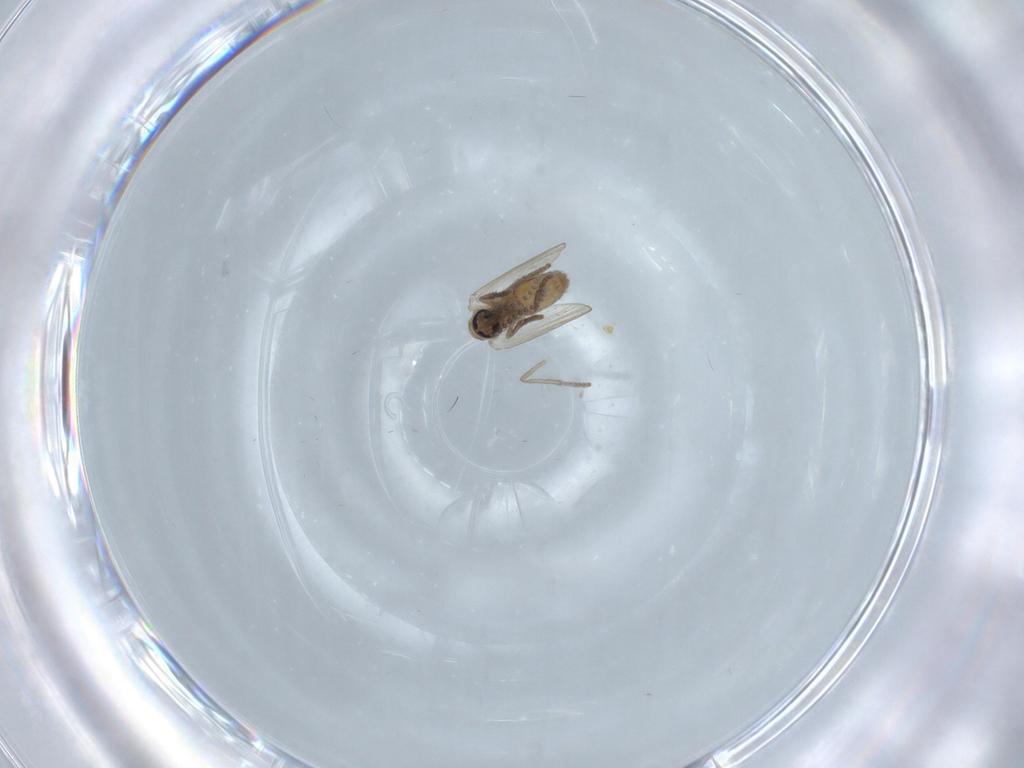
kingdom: Animalia
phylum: Arthropoda
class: Insecta
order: Diptera
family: Psychodidae
